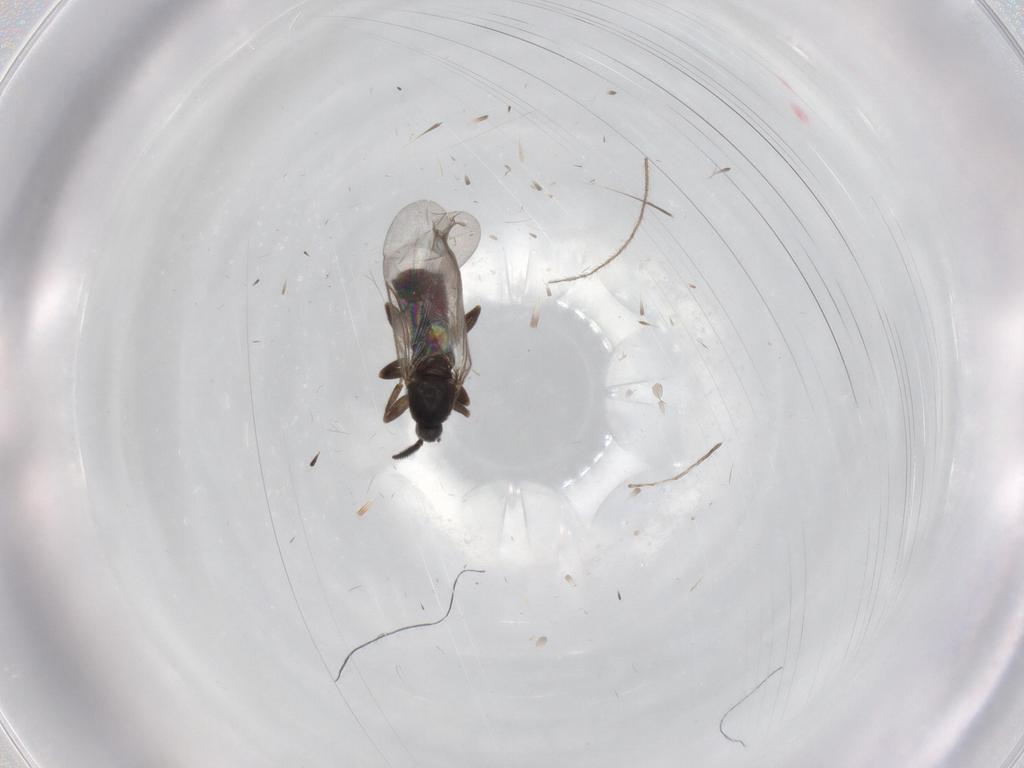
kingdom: Animalia
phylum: Arthropoda
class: Insecta
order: Diptera
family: Scatopsidae
